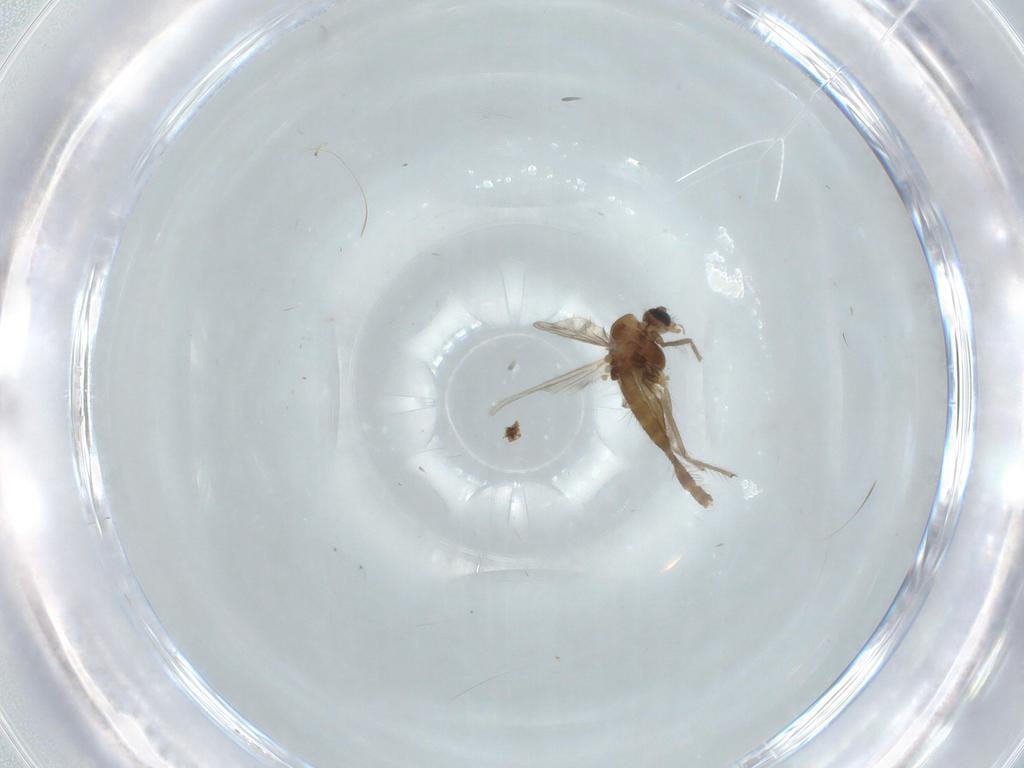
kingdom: Animalia
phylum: Arthropoda
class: Insecta
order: Diptera
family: Chironomidae
